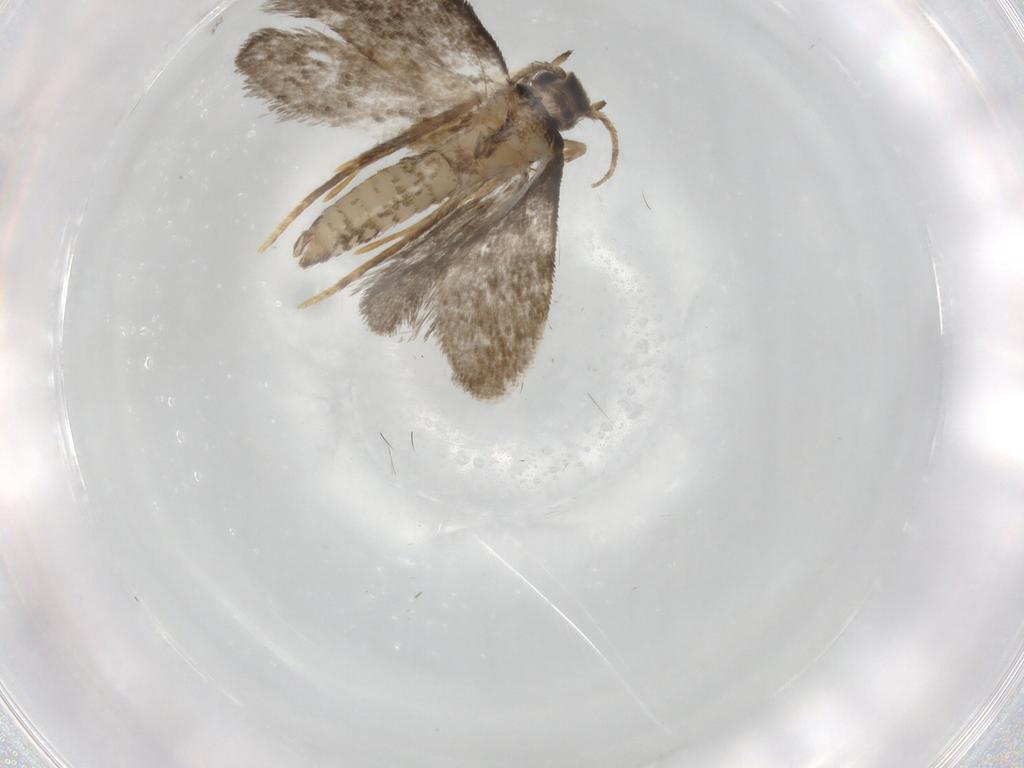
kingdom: Animalia
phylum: Arthropoda
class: Insecta
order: Lepidoptera
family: Psychidae
